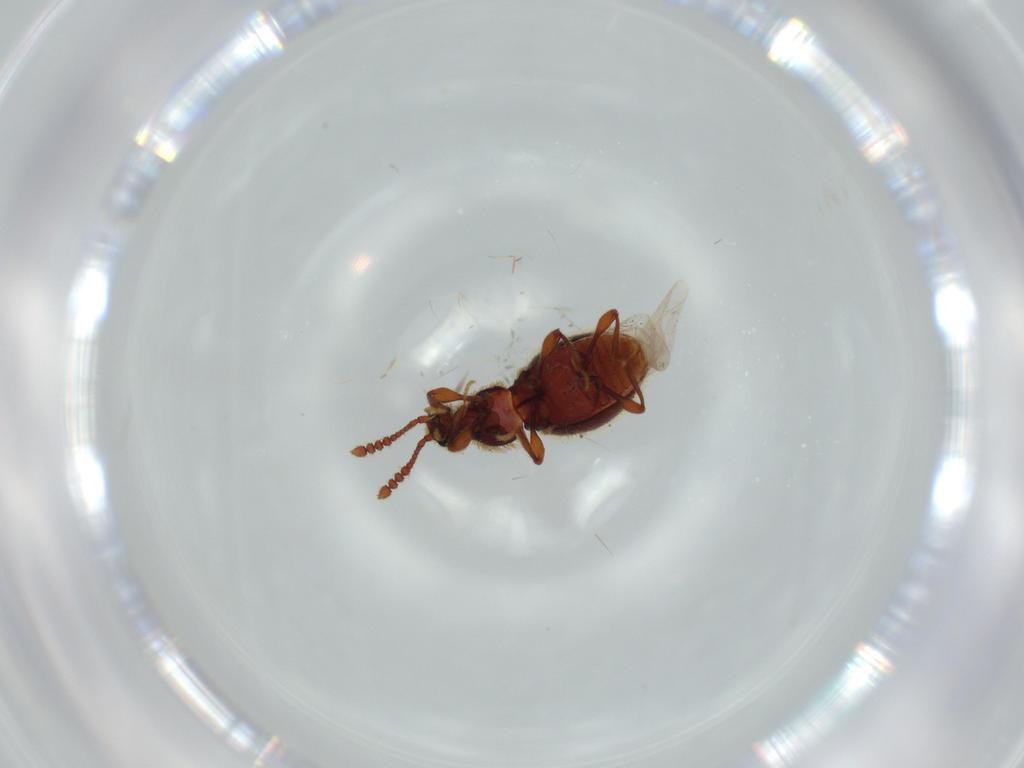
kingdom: Animalia
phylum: Arthropoda
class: Insecta
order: Coleoptera
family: Staphylinidae
